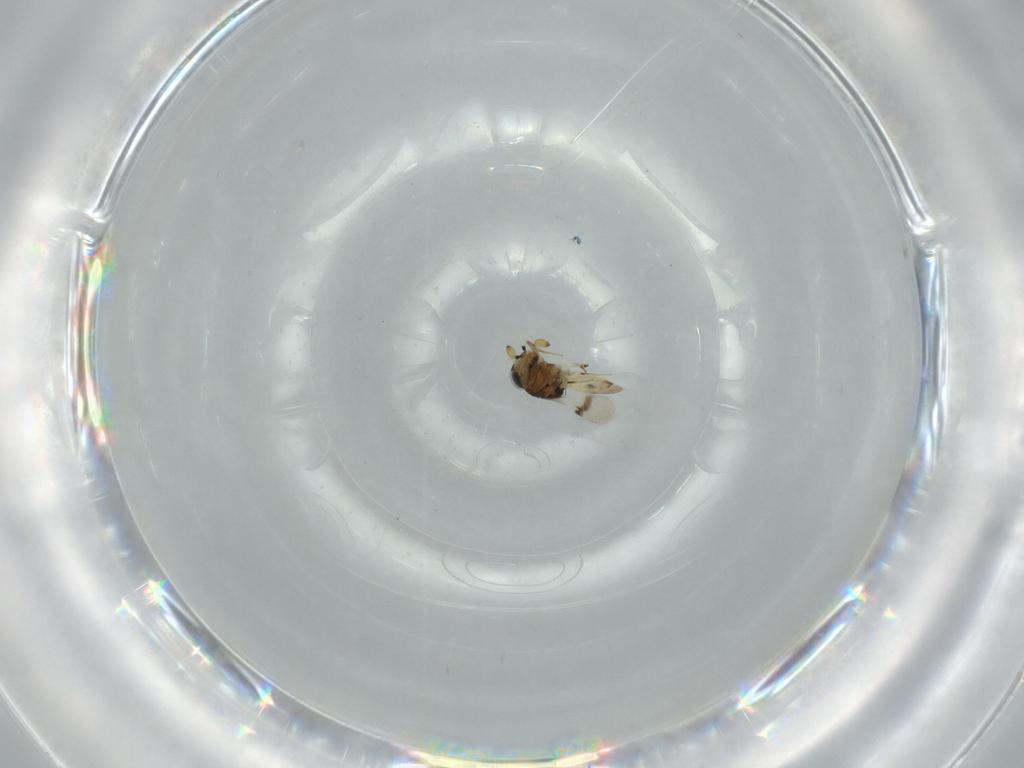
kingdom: Animalia
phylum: Arthropoda
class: Insecta
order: Hymenoptera
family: Scelionidae
